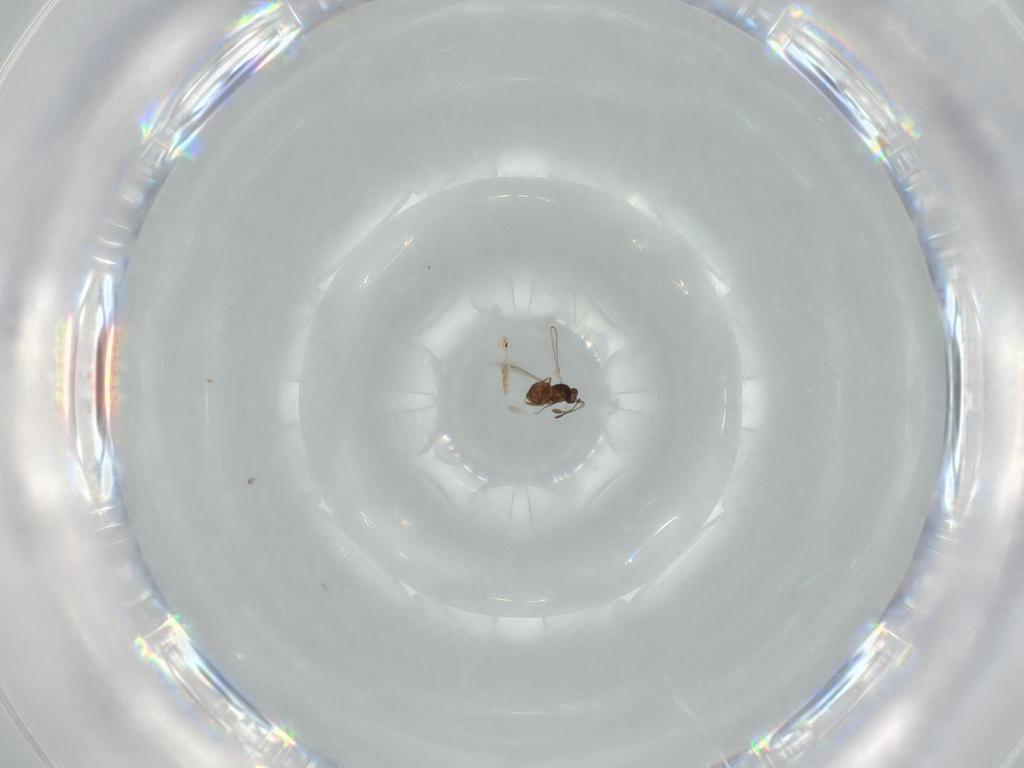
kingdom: Animalia
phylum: Arthropoda
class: Insecta
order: Hymenoptera
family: Mymaridae
